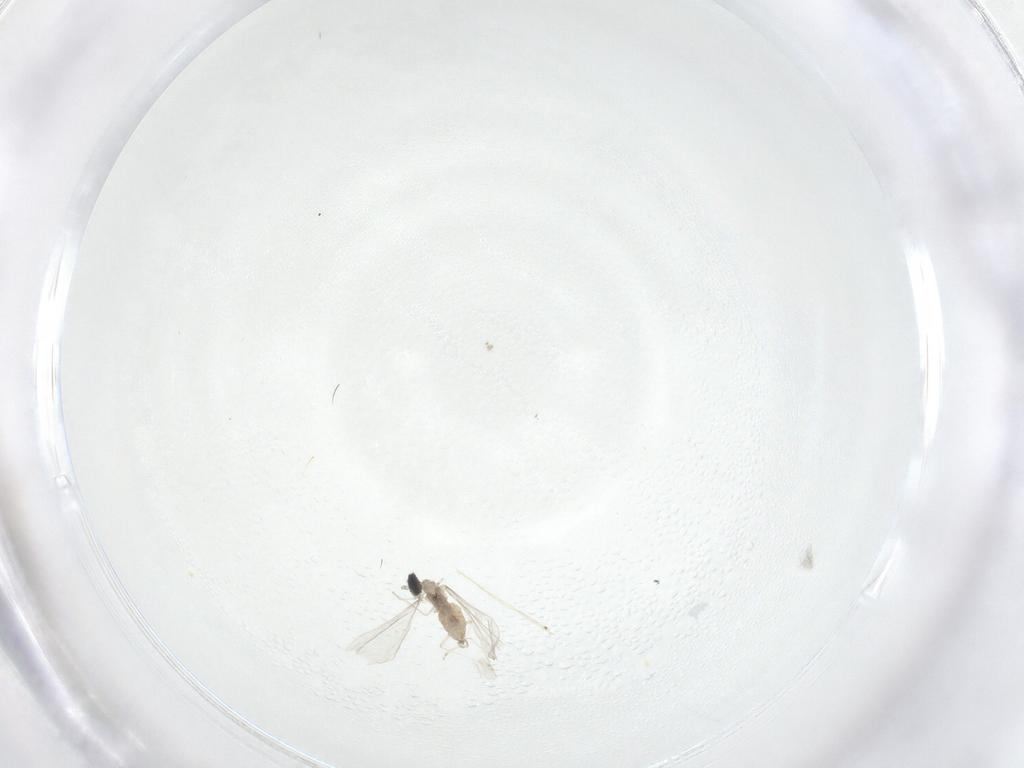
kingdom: Animalia
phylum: Arthropoda
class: Insecta
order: Diptera
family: Cecidomyiidae
